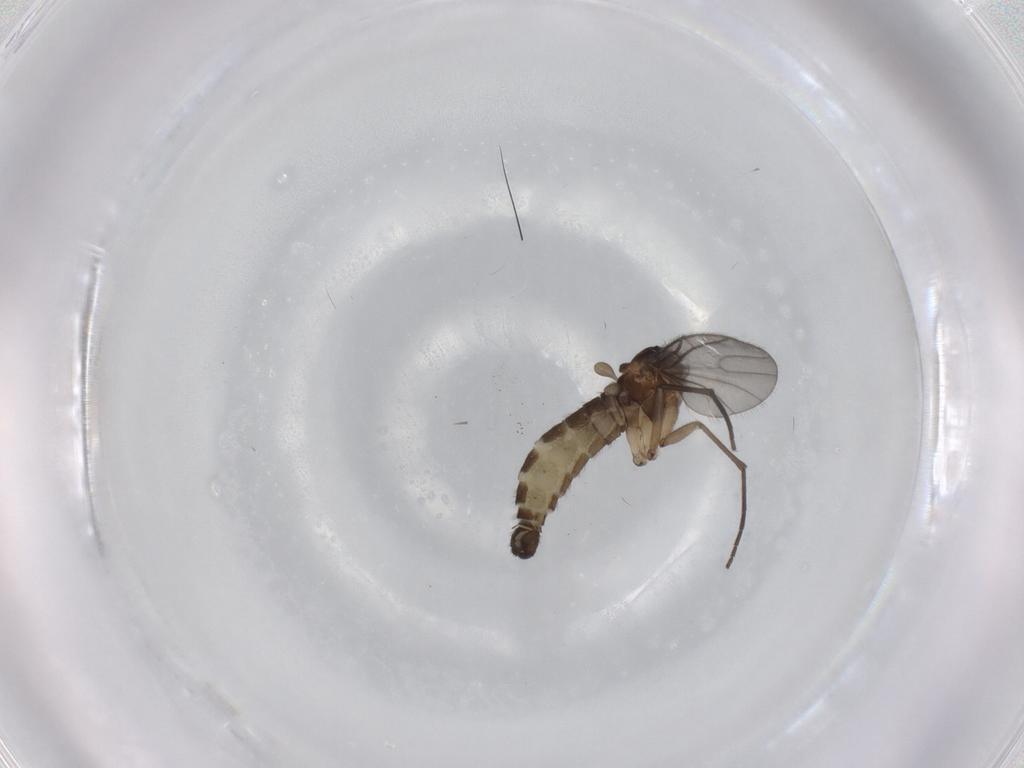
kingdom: Animalia
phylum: Arthropoda
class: Insecta
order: Diptera
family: Sciaridae
